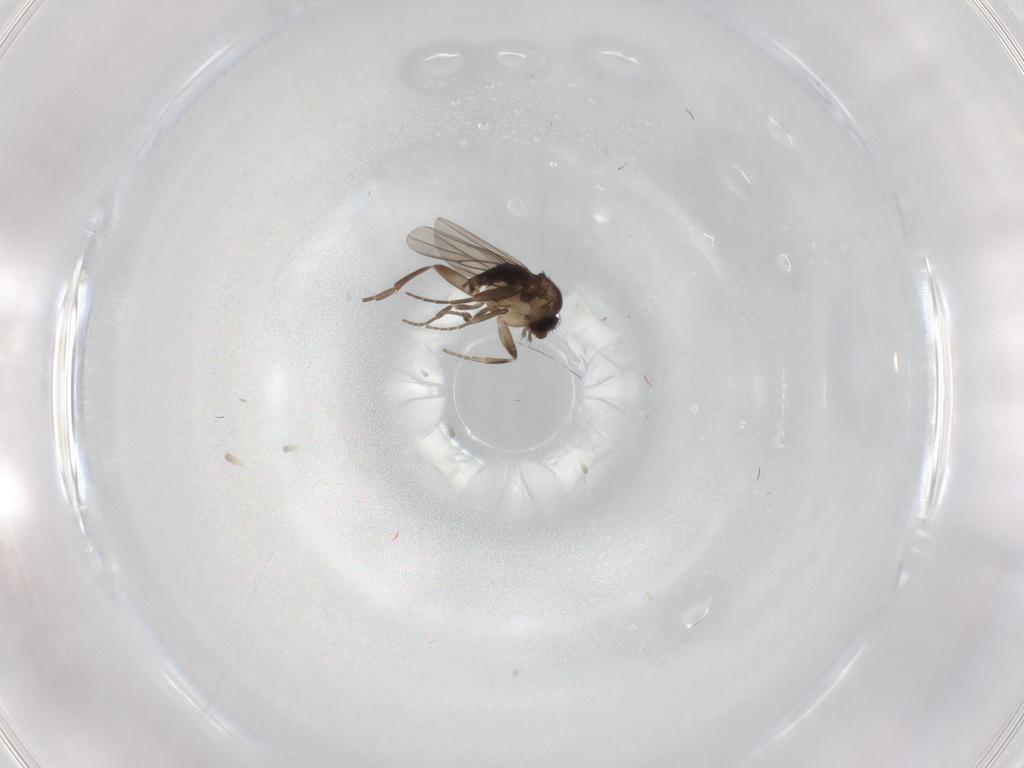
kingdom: Animalia
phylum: Arthropoda
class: Insecta
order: Diptera
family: Phoridae
